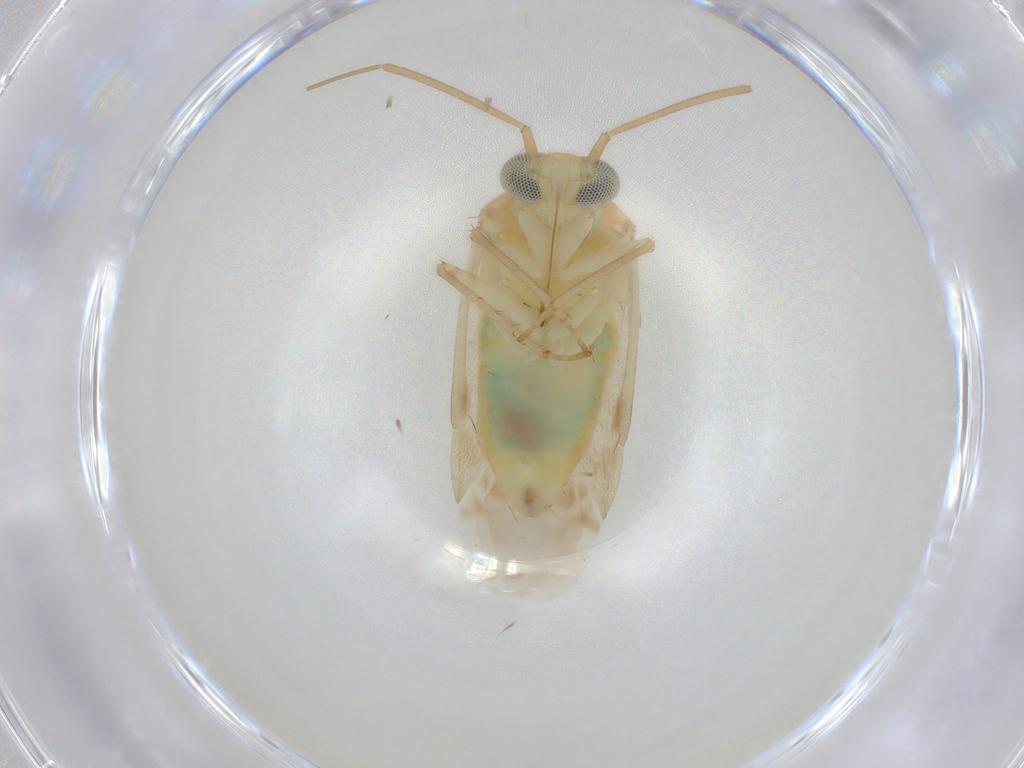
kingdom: Animalia
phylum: Arthropoda
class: Insecta
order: Hemiptera
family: Miridae
